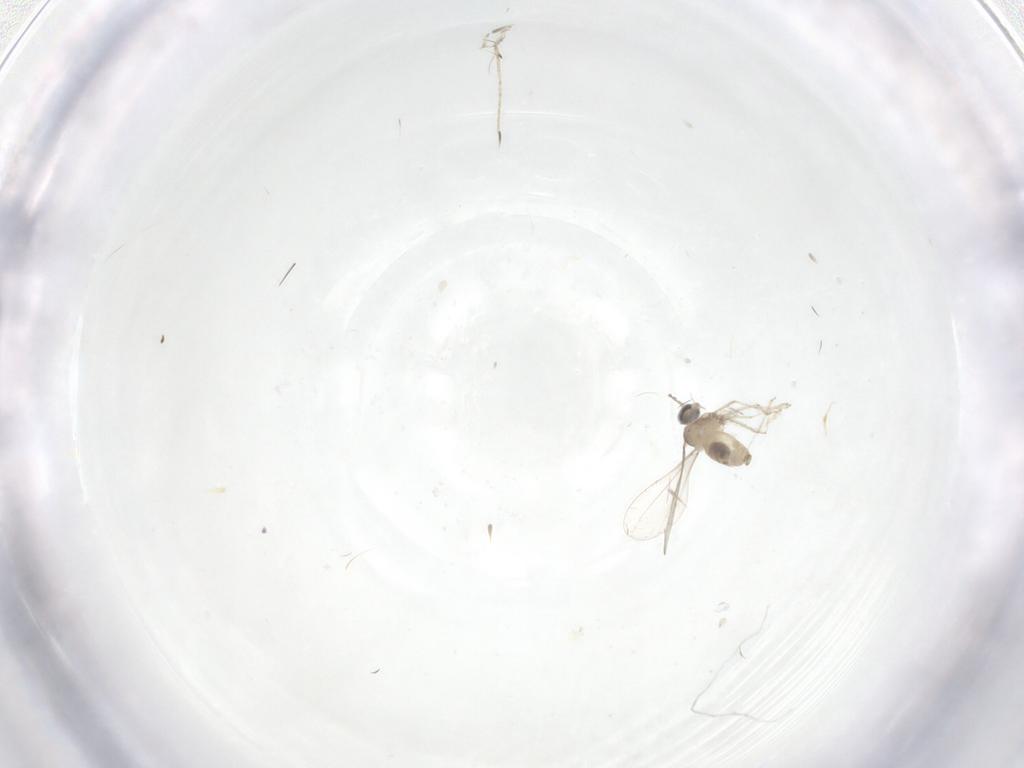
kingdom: Animalia
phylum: Arthropoda
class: Insecta
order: Diptera
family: Cecidomyiidae
